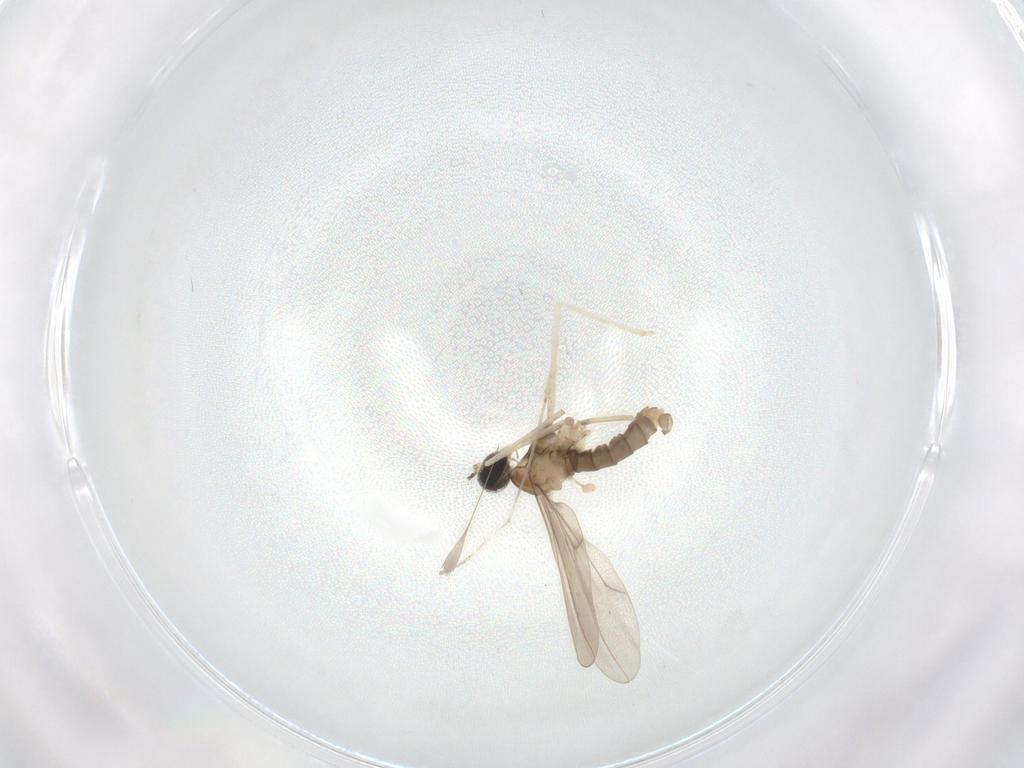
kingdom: Animalia
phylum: Arthropoda
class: Insecta
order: Diptera
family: Cecidomyiidae
